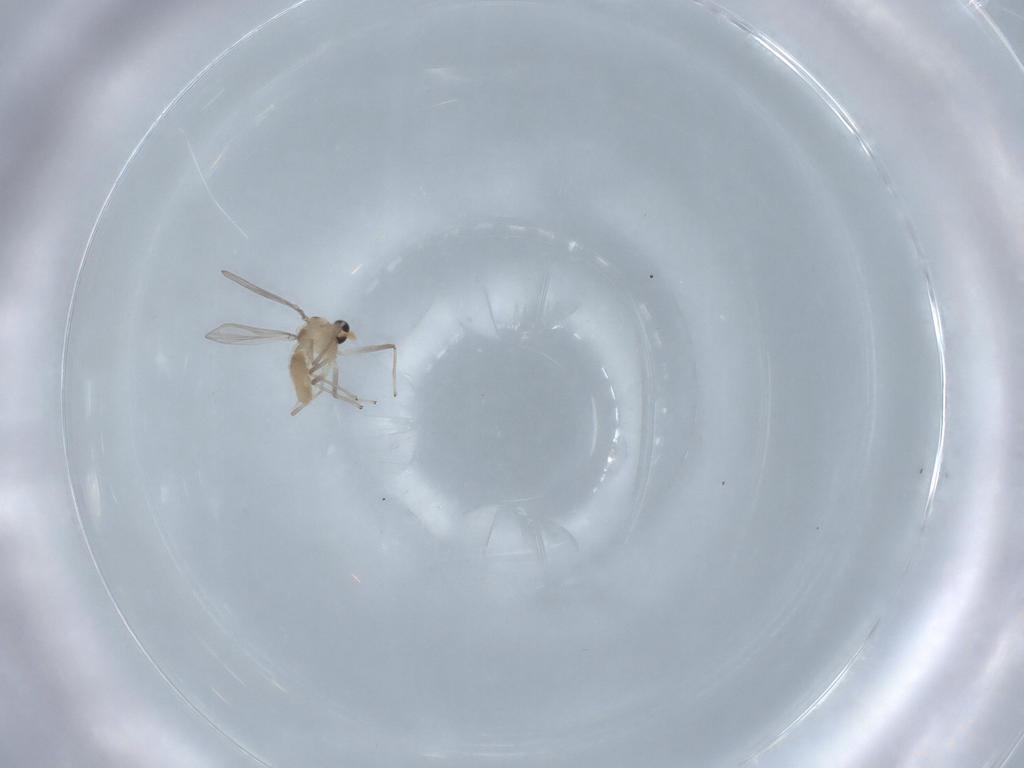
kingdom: Animalia
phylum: Arthropoda
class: Insecta
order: Diptera
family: Chironomidae
